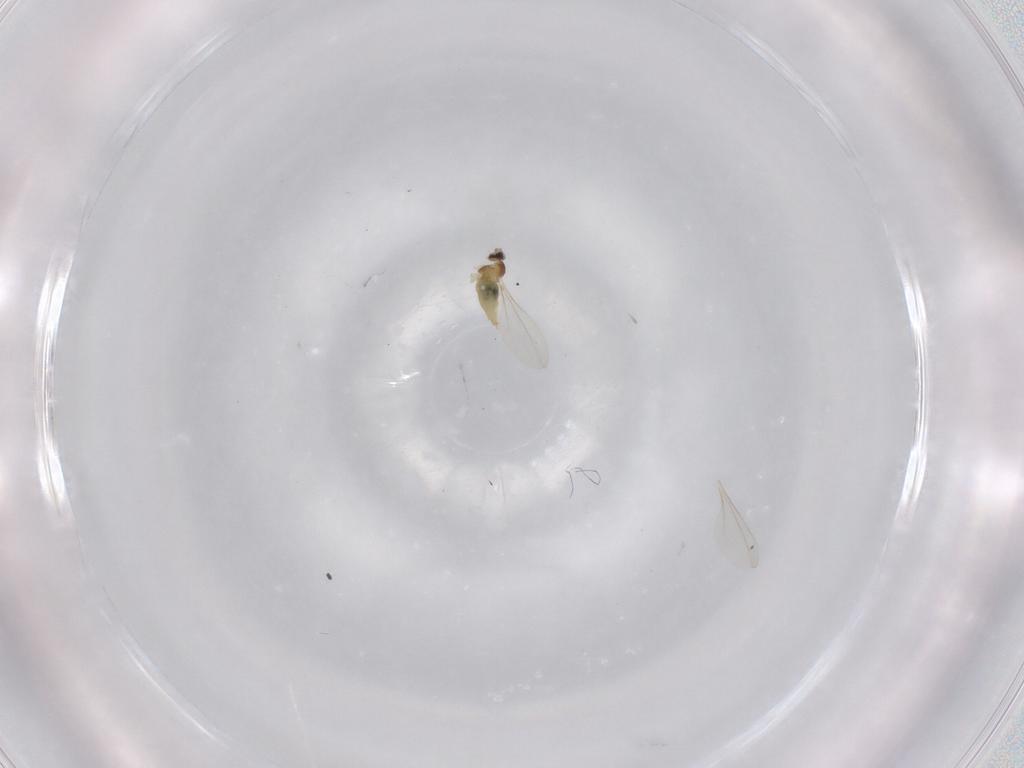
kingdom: Animalia
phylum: Arthropoda
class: Insecta
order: Diptera
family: Cecidomyiidae
